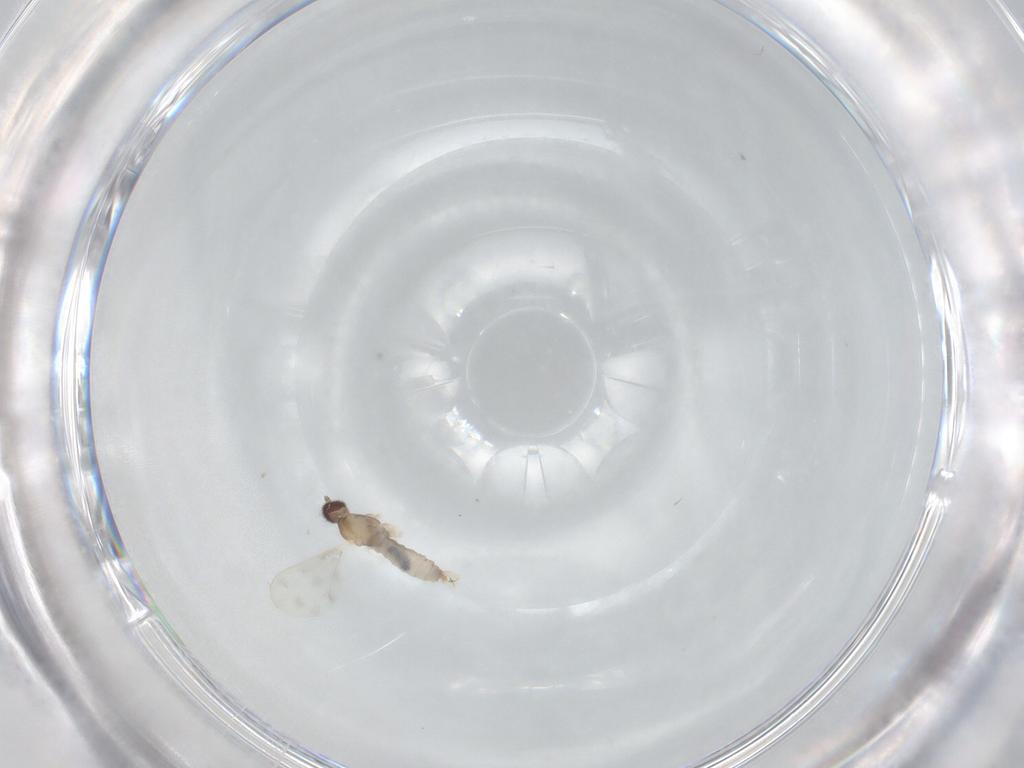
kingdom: Animalia
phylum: Arthropoda
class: Insecta
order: Diptera
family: Cecidomyiidae
